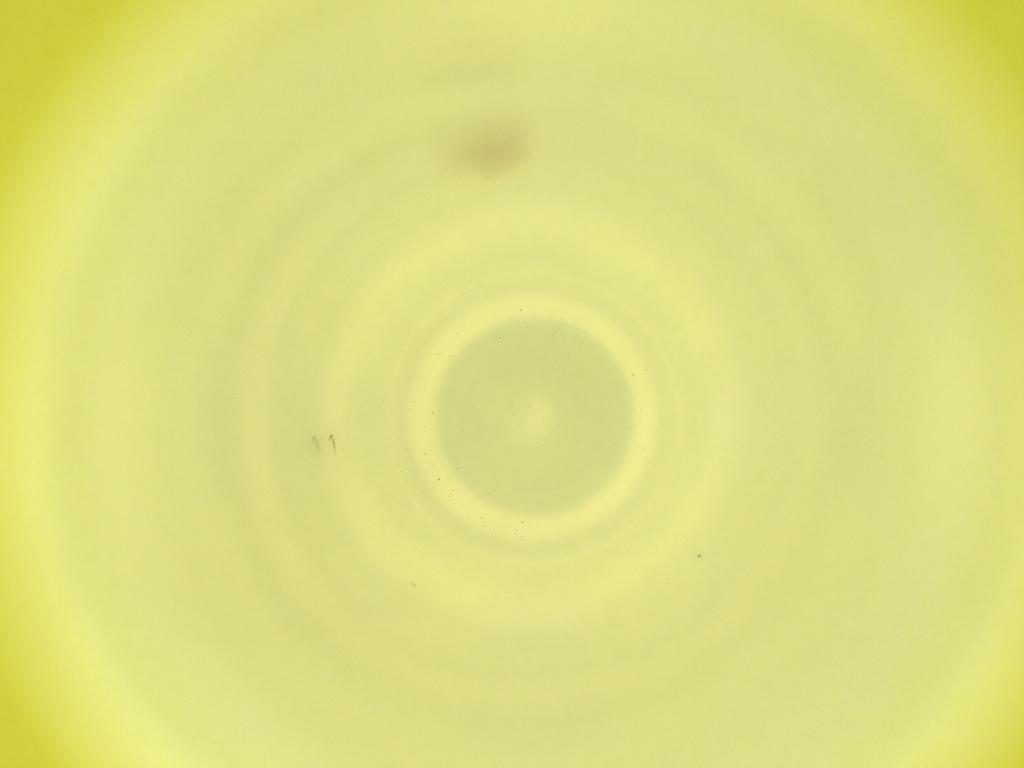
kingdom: Animalia
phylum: Arthropoda
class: Insecta
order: Diptera
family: Cecidomyiidae
